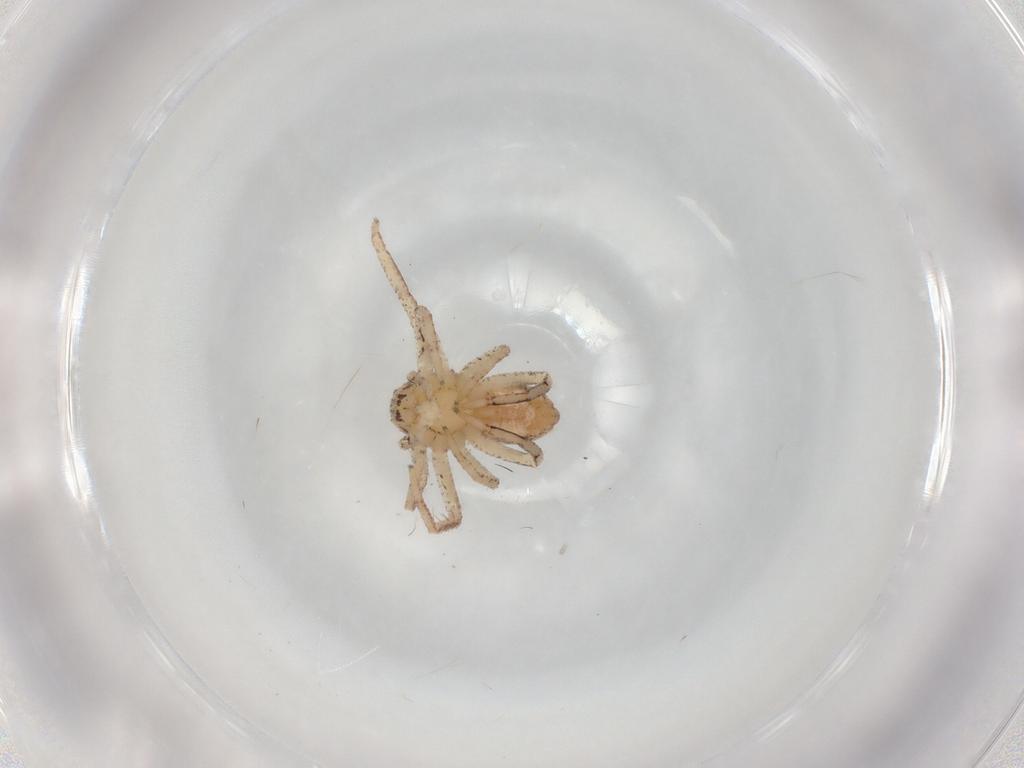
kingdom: Animalia
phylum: Arthropoda
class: Arachnida
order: Araneae
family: Philodromidae
